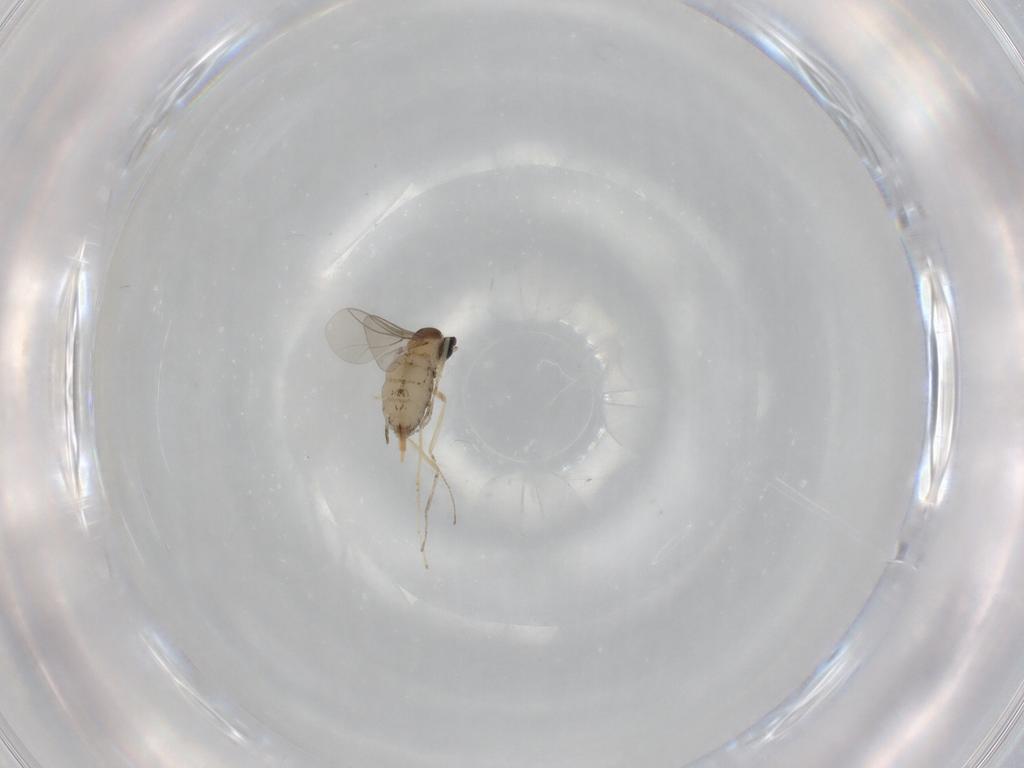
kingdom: Animalia
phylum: Arthropoda
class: Insecta
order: Diptera
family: Cecidomyiidae
